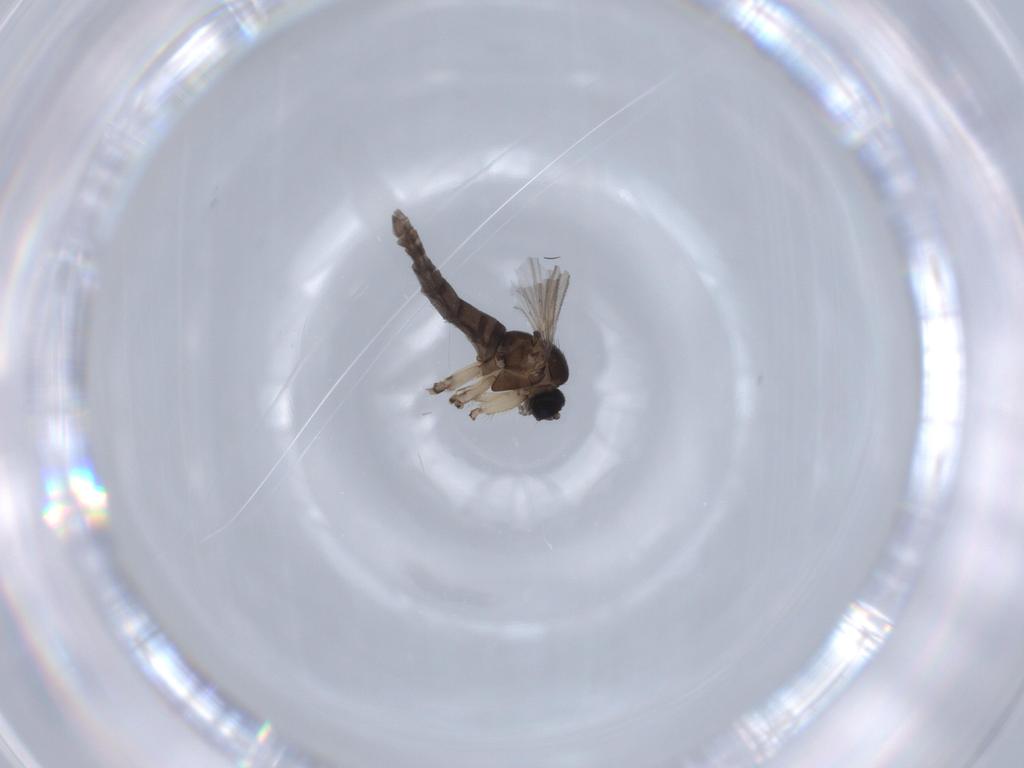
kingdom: Animalia
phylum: Arthropoda
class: Insecta
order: Diptera
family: Sciaridae
